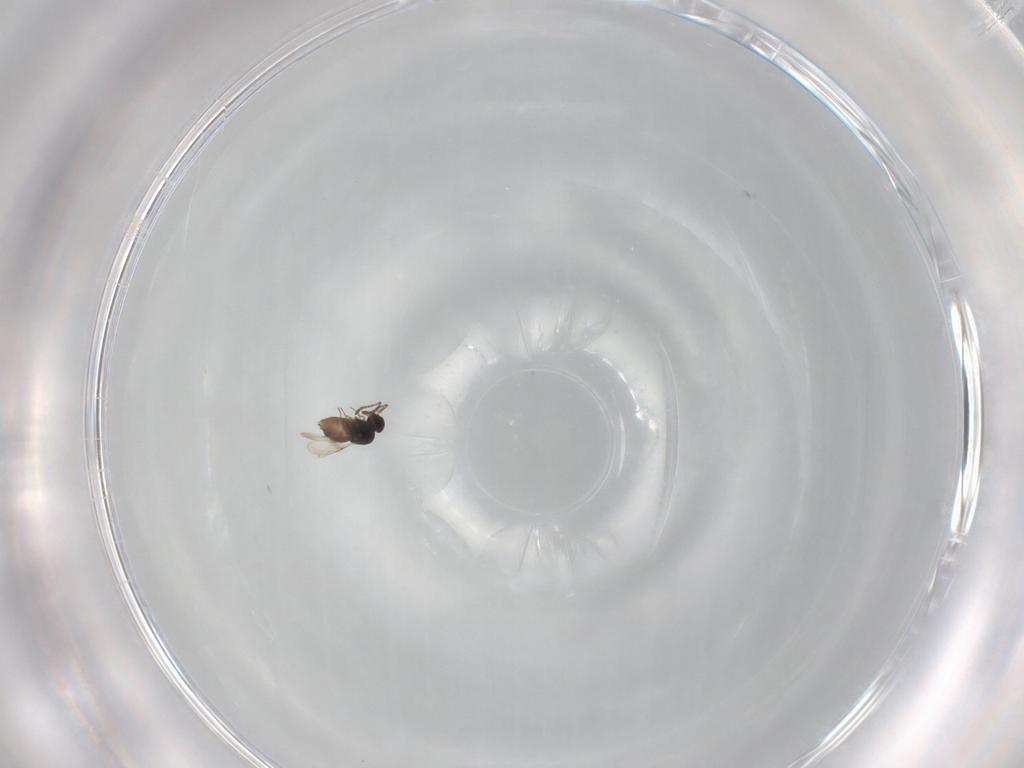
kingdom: Animalia
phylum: Arthropoda
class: Insecta
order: Hymenoptera
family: Ceraphronidae
